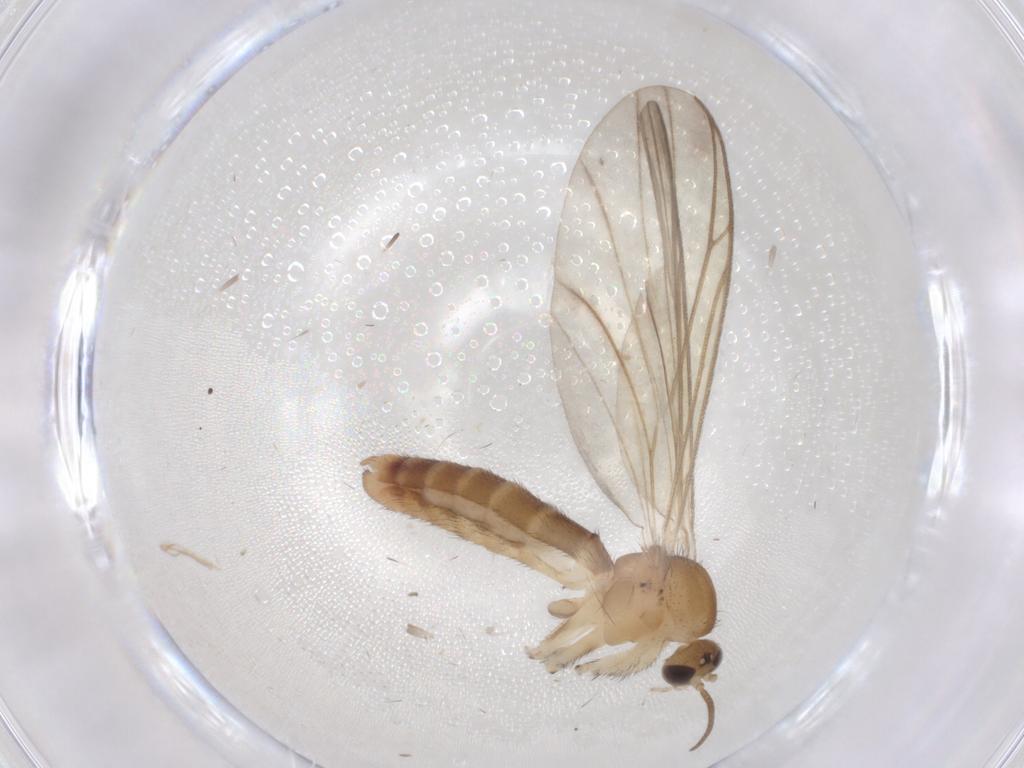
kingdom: Animalia
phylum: Arthropoda
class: Insecta
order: Diptera
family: Keroplatidae
